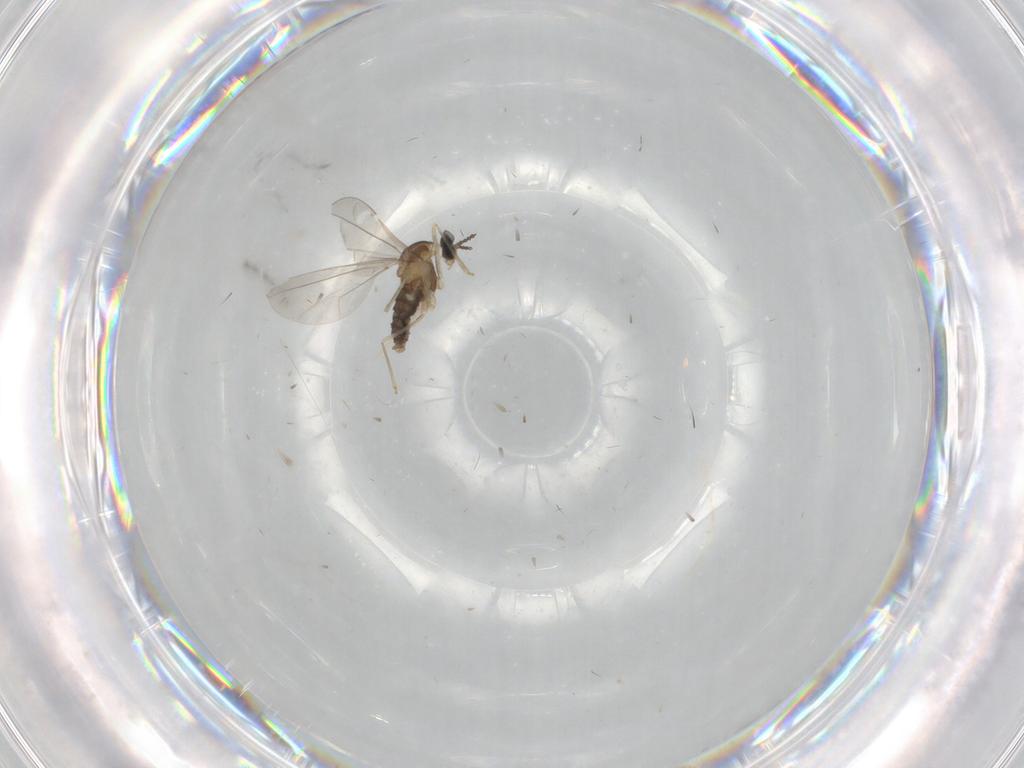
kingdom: Animalia
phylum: Arthropoda
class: Insecta
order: Diptera
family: Cecidomyiidae
